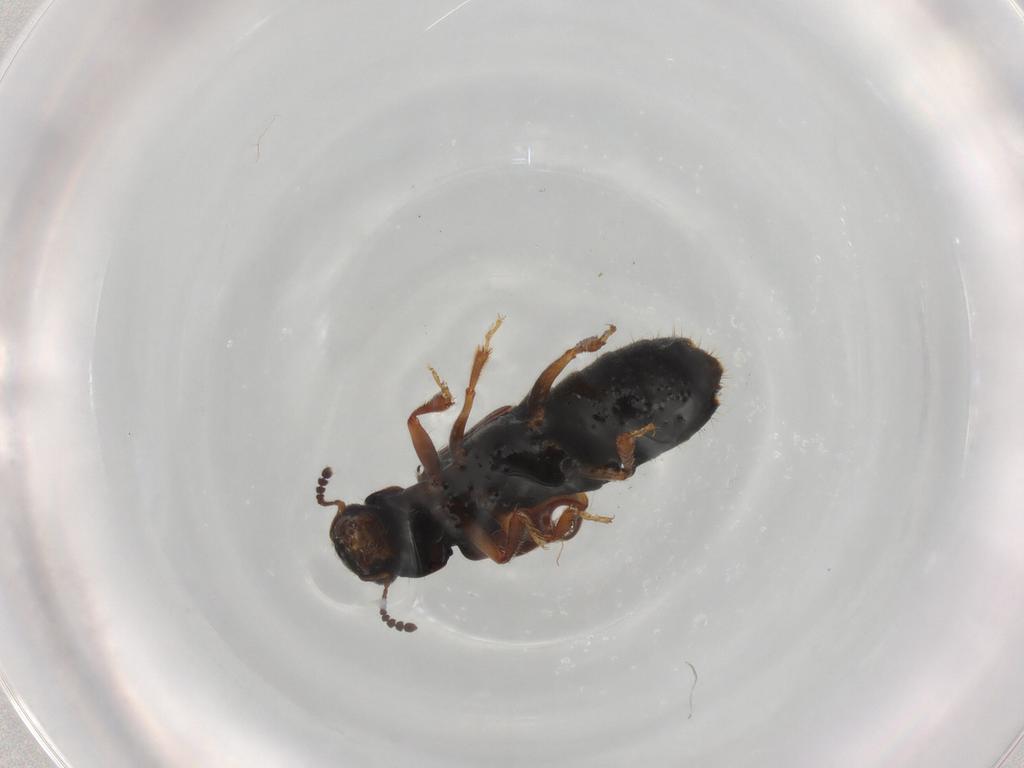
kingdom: Animalia
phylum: Arthropoda
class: Insecta
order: Coleoptera
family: Staphylinidae
